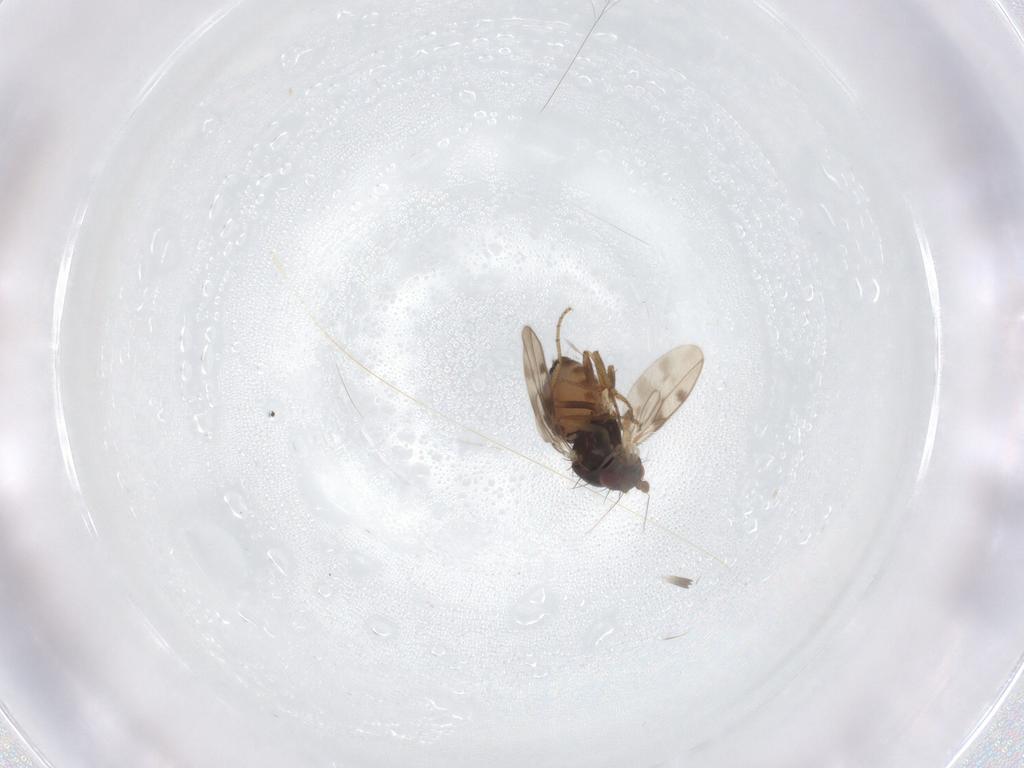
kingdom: Animalia
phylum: Arthropoda
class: Insecta
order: Diptera
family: Sphaeroceridae
